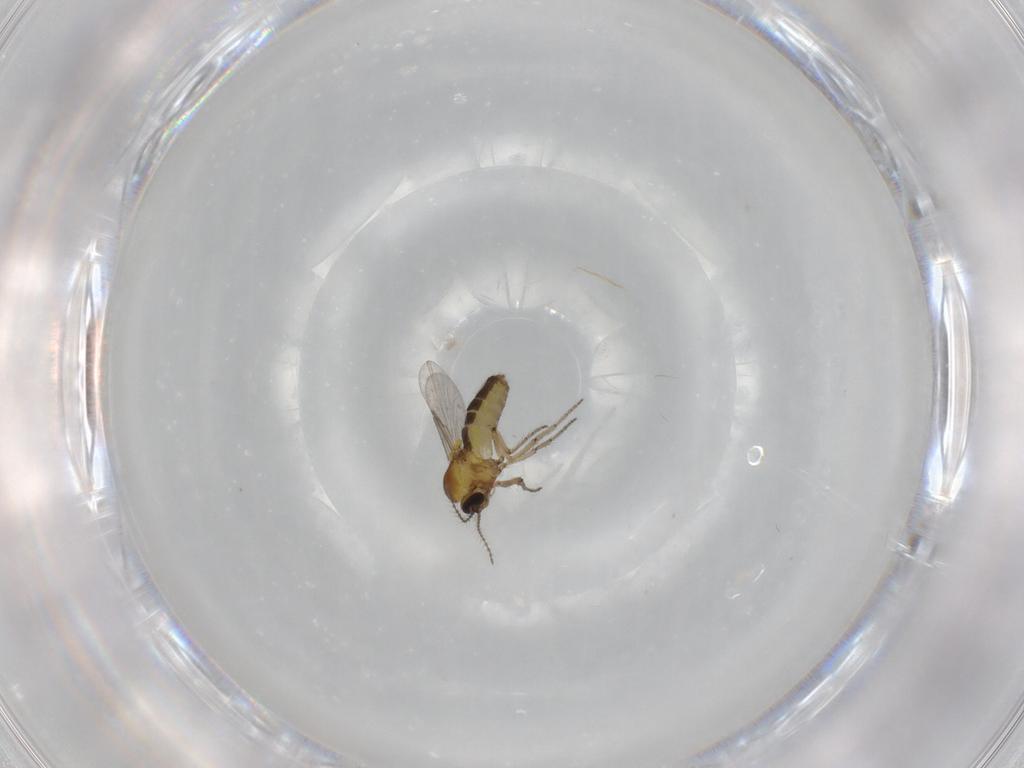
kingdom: Animalia
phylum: Arthropoda
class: Insecta
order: Diptera
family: Ceratopogonidae
